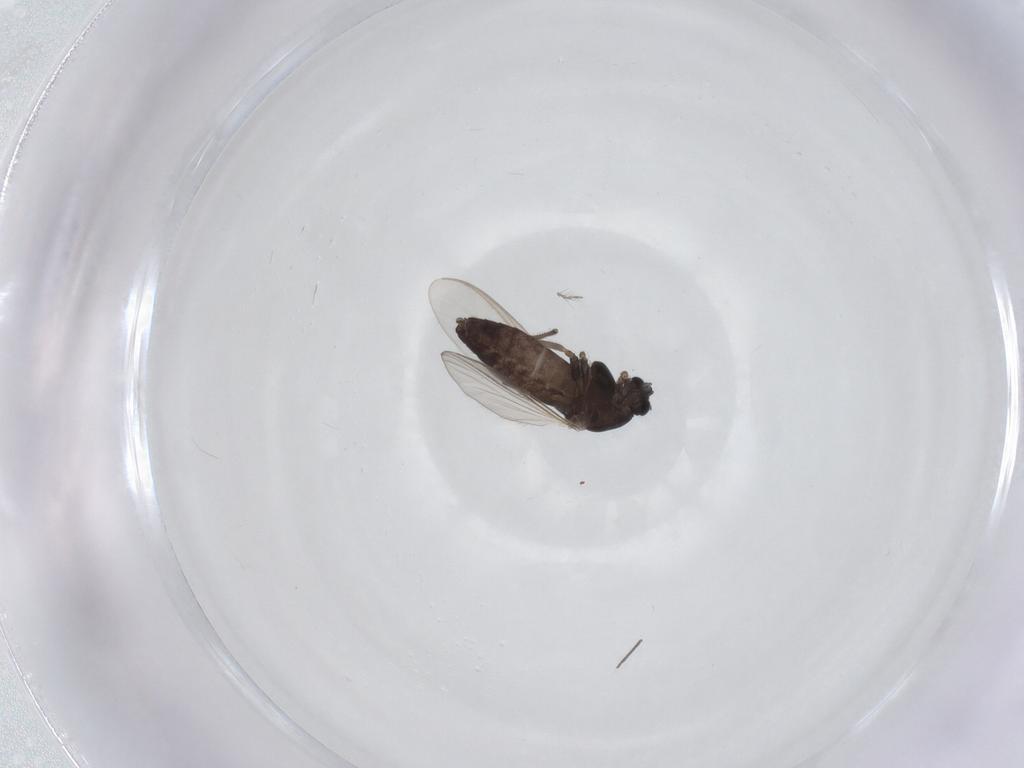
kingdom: Animalia
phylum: Arthropoda
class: Insecta
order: Diptera
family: Chironomidae
